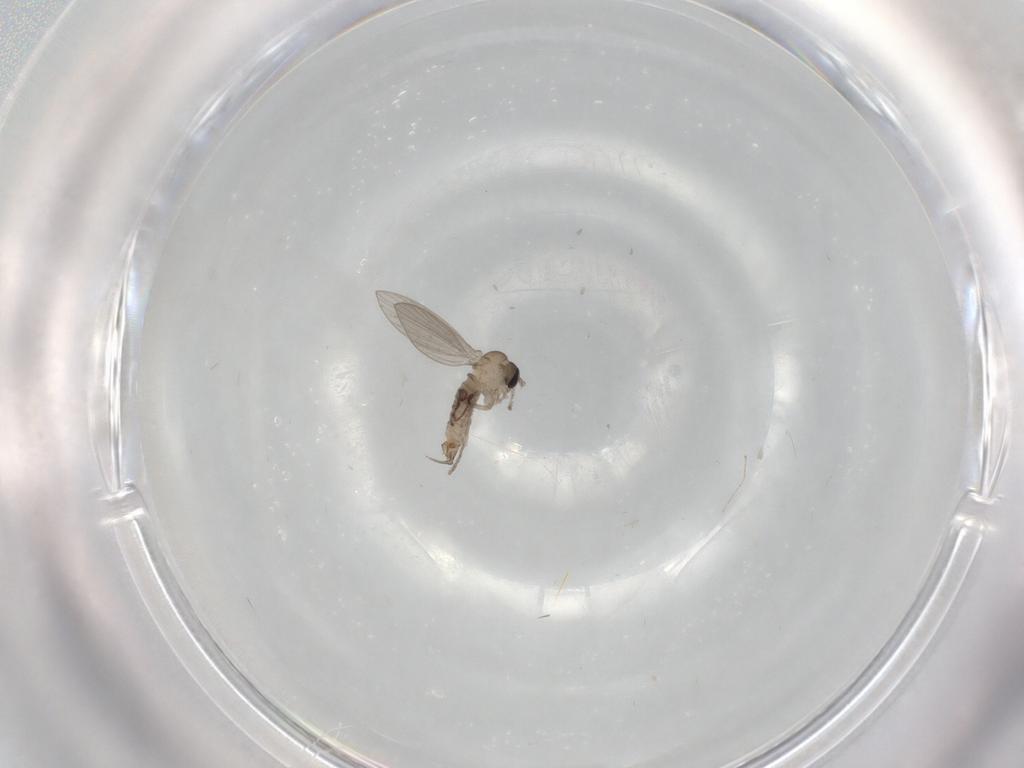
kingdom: Animalia
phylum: Arthropoda
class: Insecta
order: Diptera
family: Psychodidae
